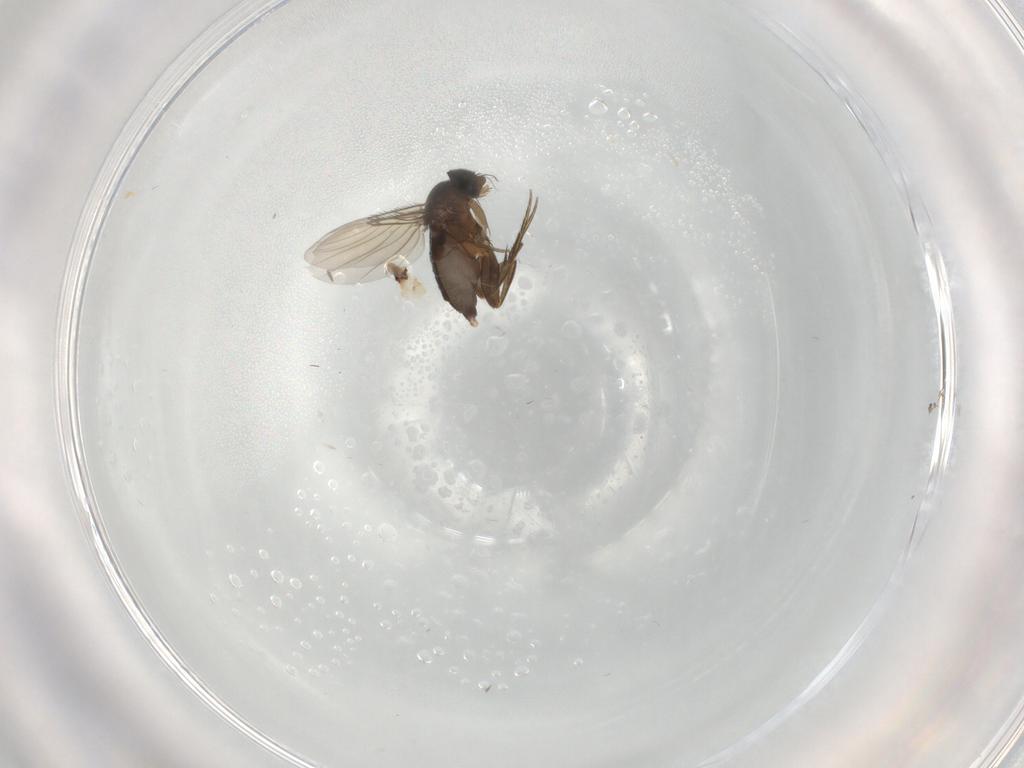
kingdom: Animalia
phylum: Arthropoda
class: Insecta
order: Diptera
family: Phoridae
